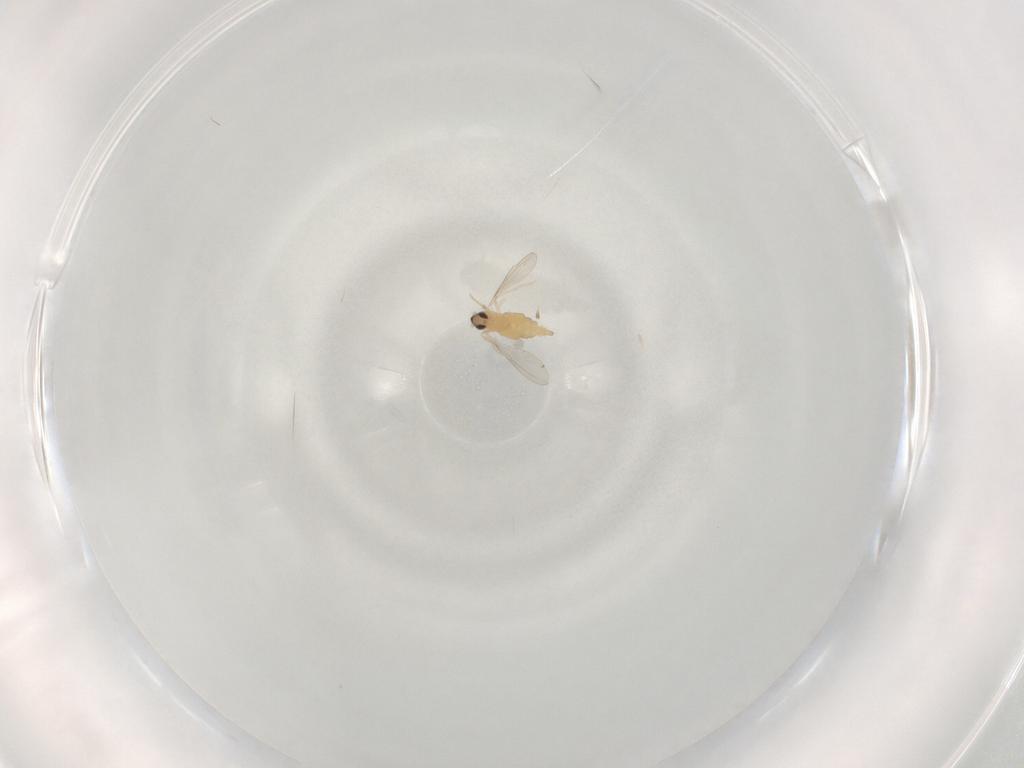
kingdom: Animalia
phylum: Arthropoda
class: Insecta
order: Diptera
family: Cecidomyiidae
